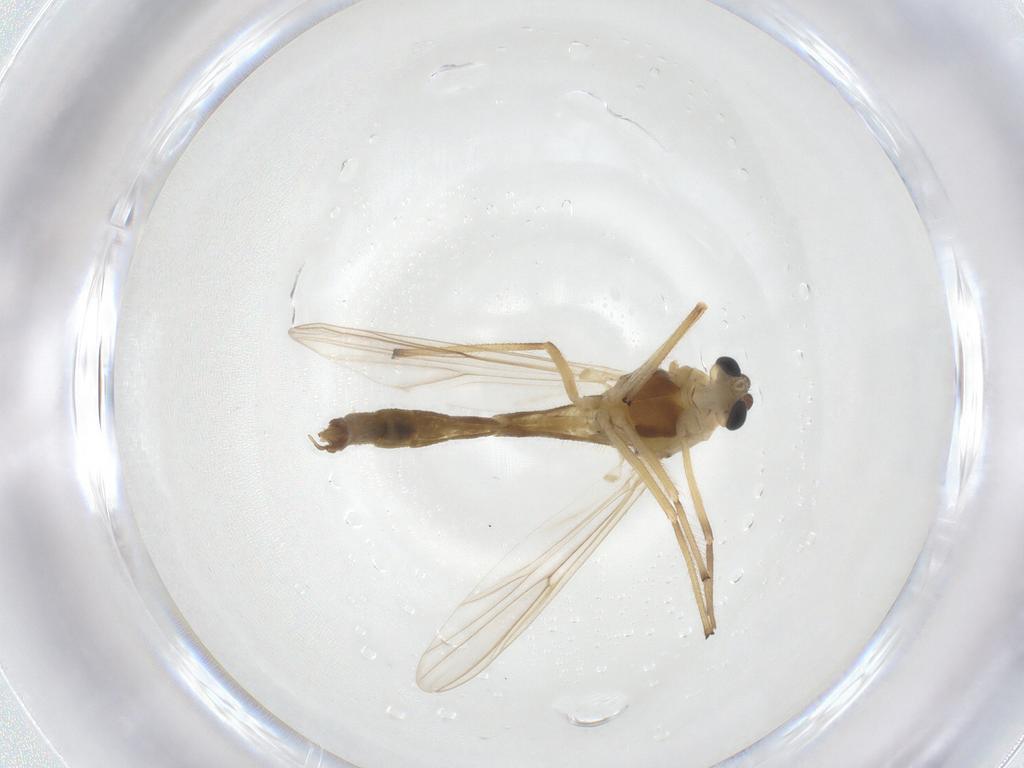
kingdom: Animalia
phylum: Arthropoda
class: Insecta
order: Diptera
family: Chironomidae
